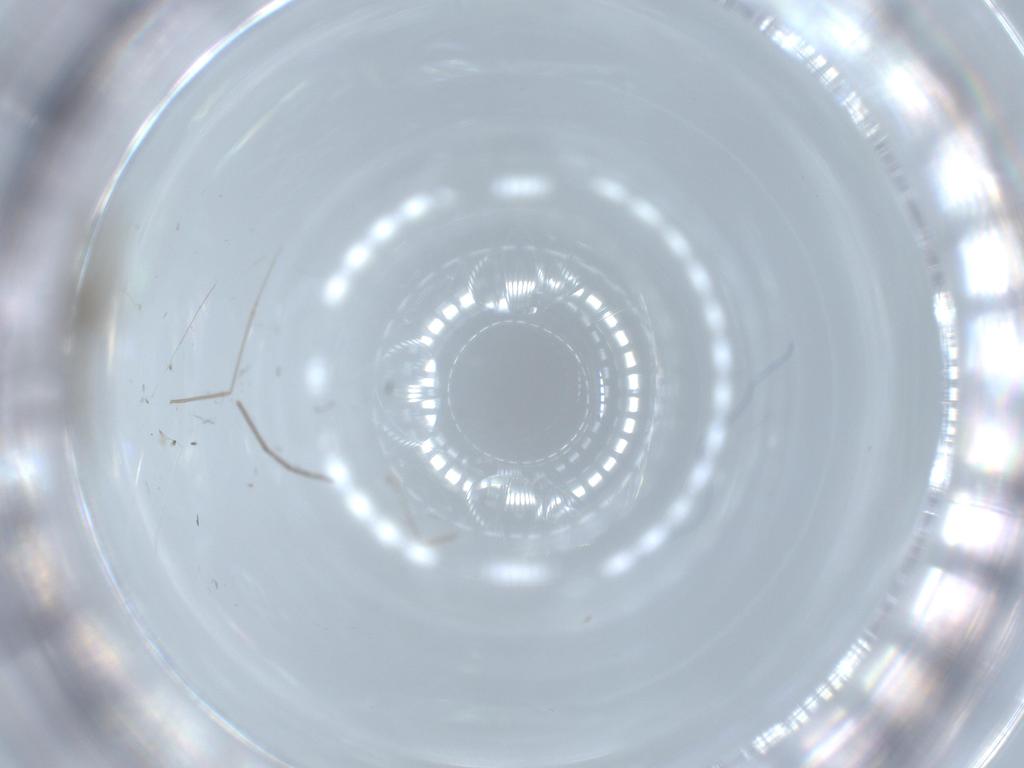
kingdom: Animalia
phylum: Arthropoda
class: Insecta
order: Diptera
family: Cecidomyiidae
